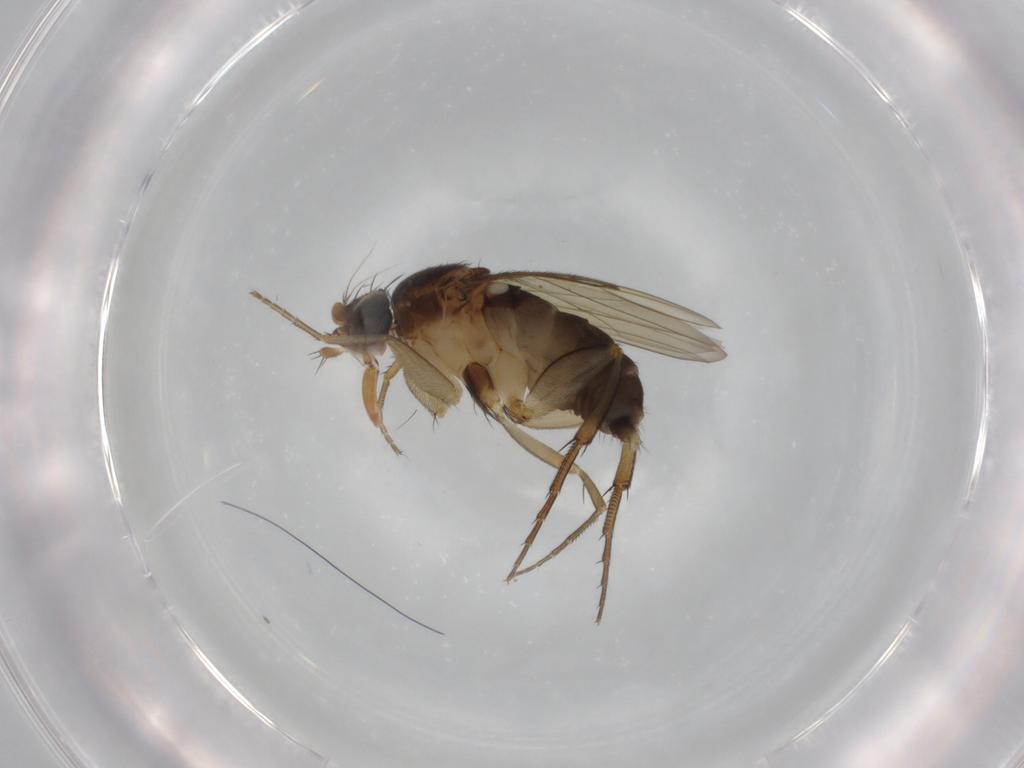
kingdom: Animalia
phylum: Arthropoda
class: Insecta
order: Diptera
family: Phoridae
